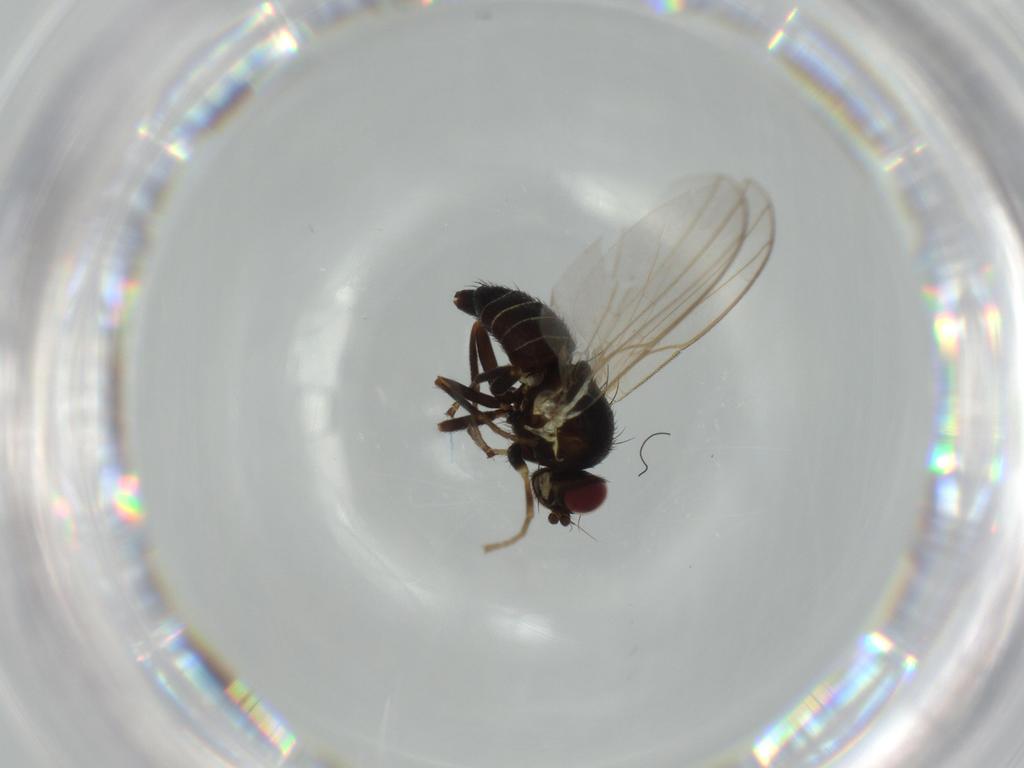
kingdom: Animalia
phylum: Arthropoda
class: Insecta
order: Diptera
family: Agromyzidae
